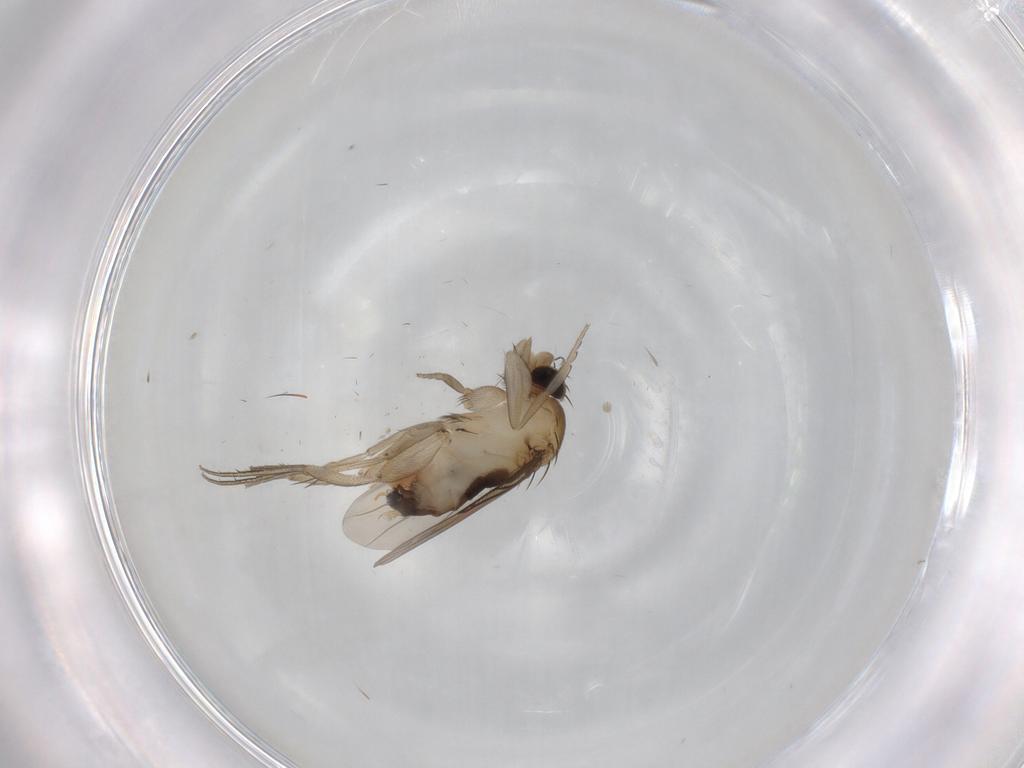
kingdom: Animalia
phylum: Arthropoda
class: Insecta
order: Diptera
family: Phoridae
